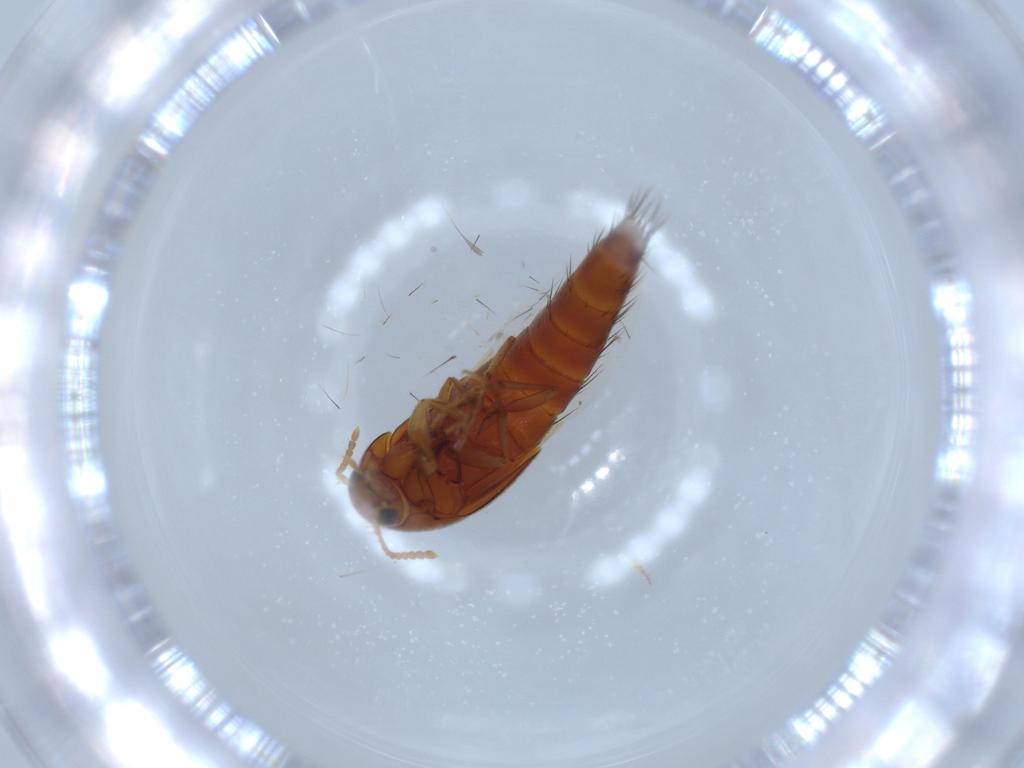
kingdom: Animalia
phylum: Arthropoda
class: Insecta
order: Coleoptera
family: Staphylinidae
